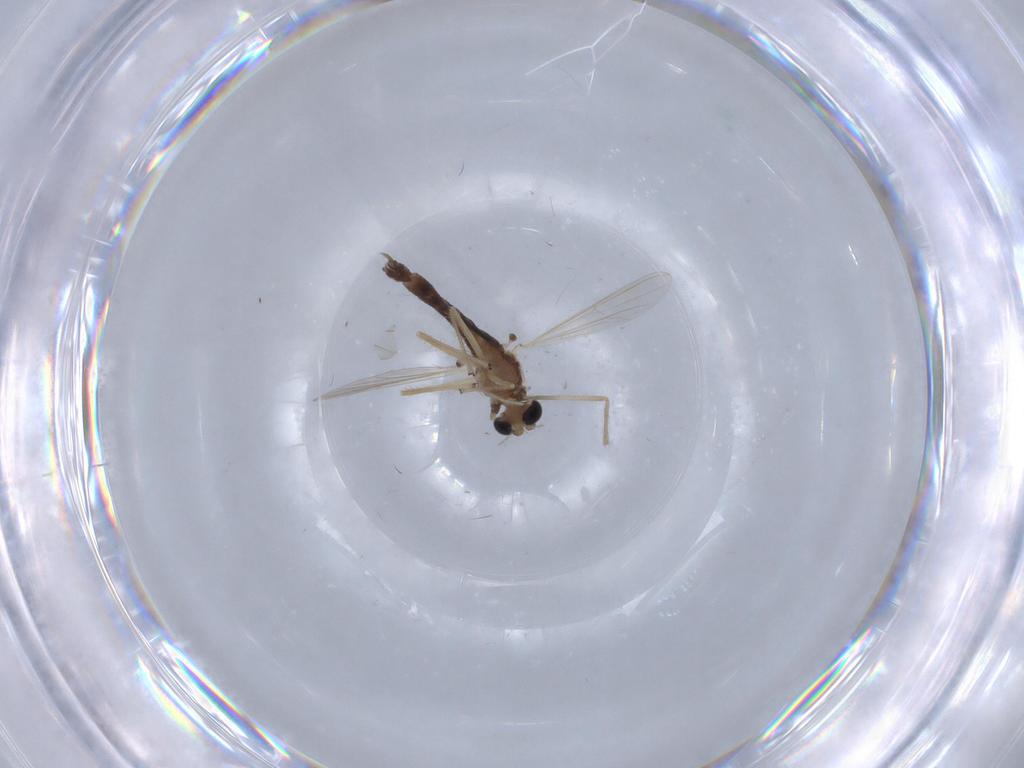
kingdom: Animalia
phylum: Arthropoda
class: Insecta
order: Diptera
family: Chironomidae
